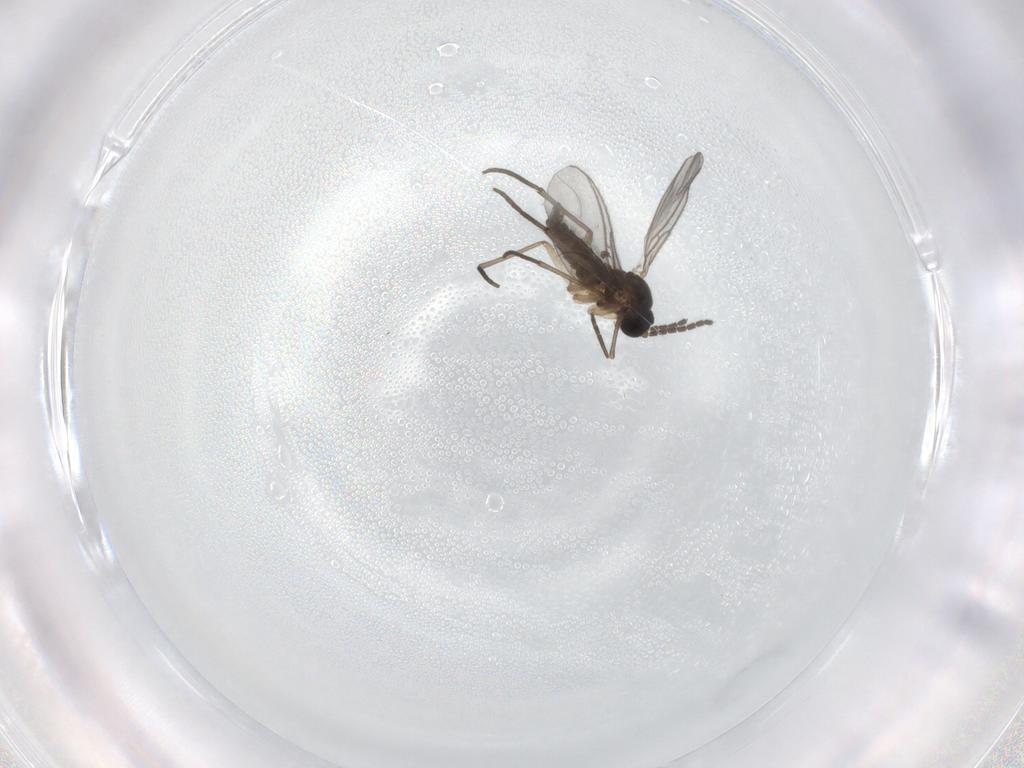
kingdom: Animalia
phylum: Arthropoda
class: Insecta
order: Diptera
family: Sciaridae
